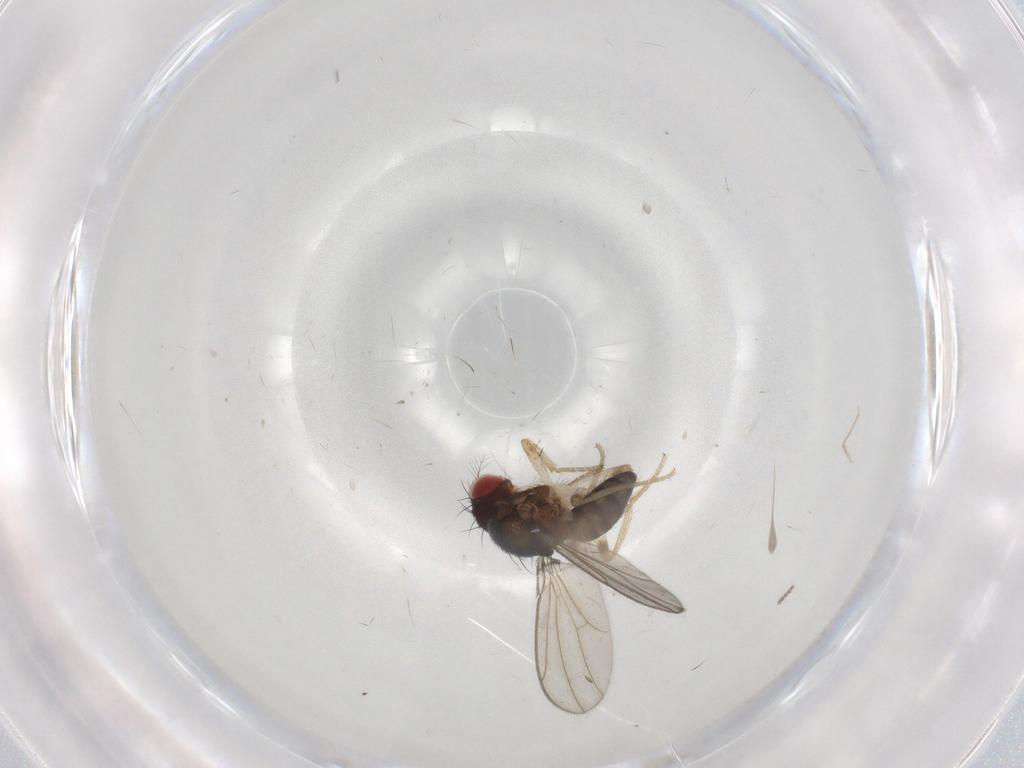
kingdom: Animalia
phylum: Arthropoda
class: Insecta
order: Diptera
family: Drosophilidae
